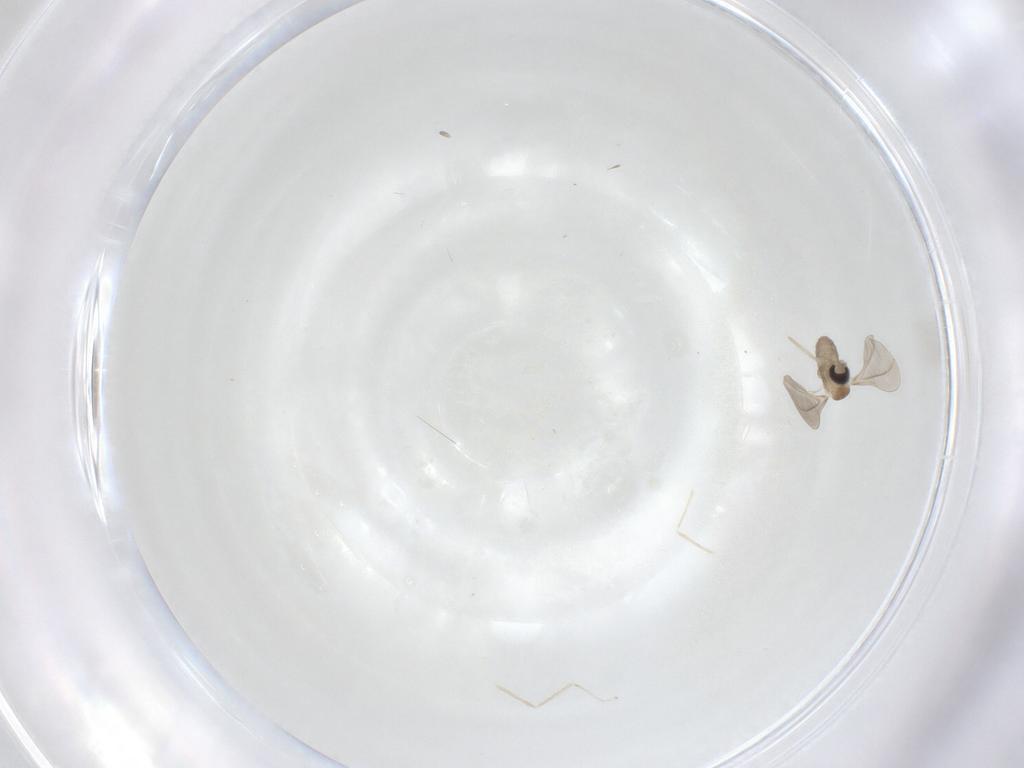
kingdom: Animalia
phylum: Arthropoda
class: Insecta
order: Diptera
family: Cecidomyiidae
